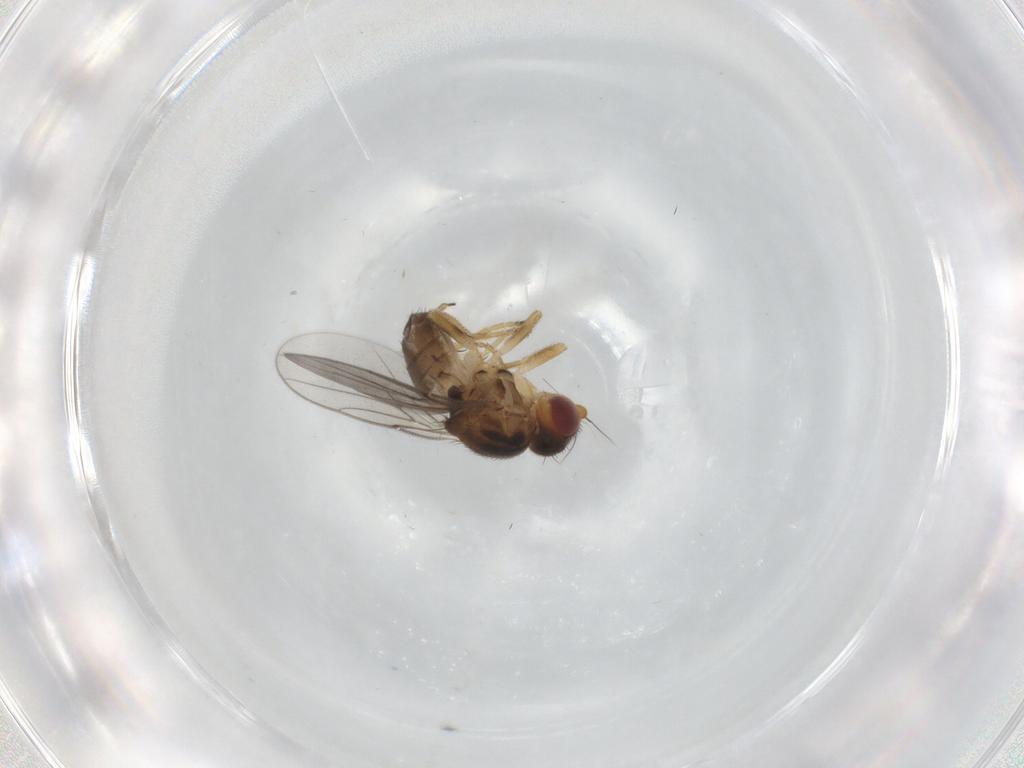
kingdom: Animalia
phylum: Arthropoda
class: Insecta
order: Diptera
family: Chloropidae
